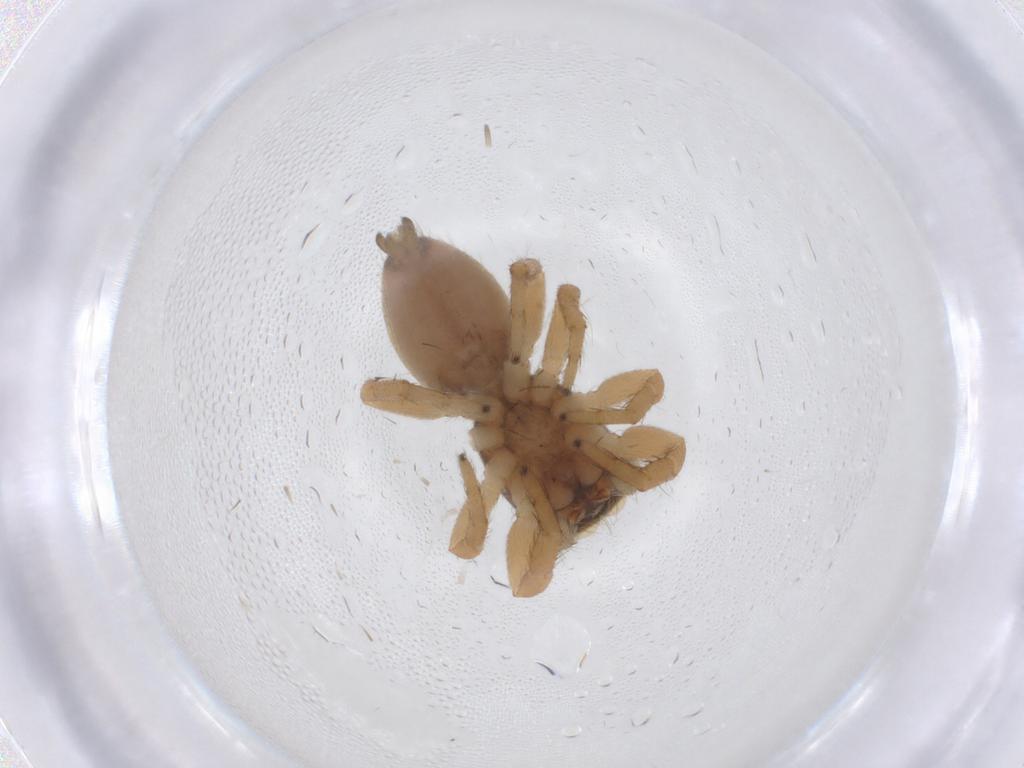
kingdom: Animalia
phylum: Arthropoda
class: Arachnida
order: Araneae
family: Salticidae
